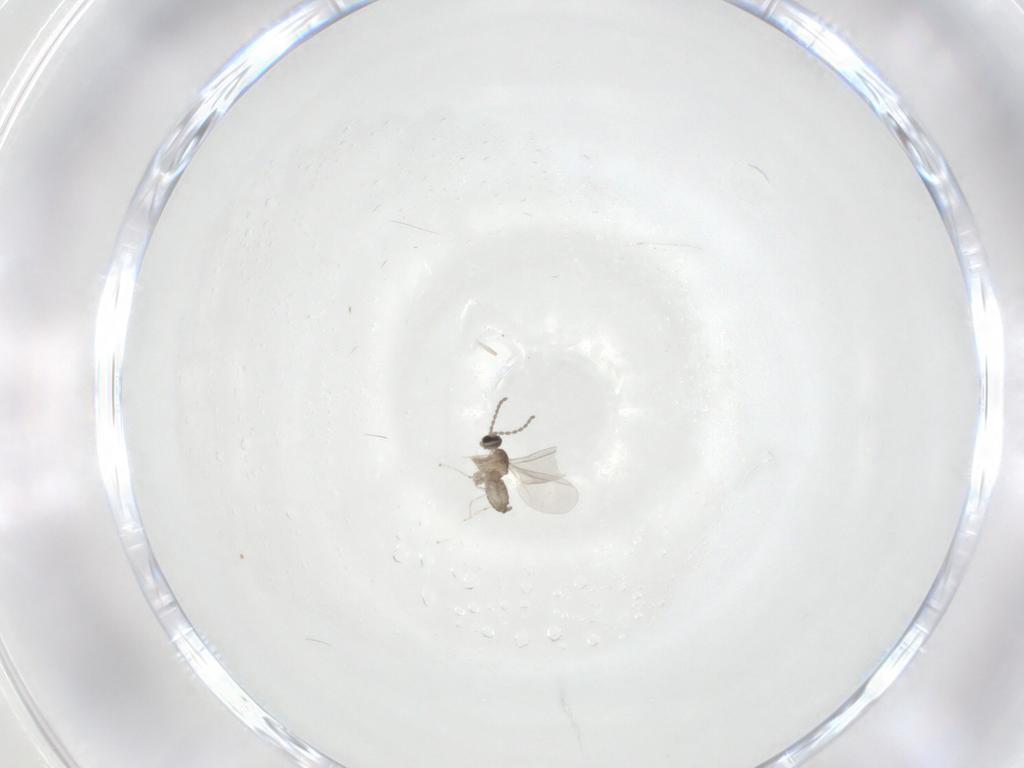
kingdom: Animalia
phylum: Arthropoda
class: Insecta
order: Diptera
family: Cecidomyiidae
